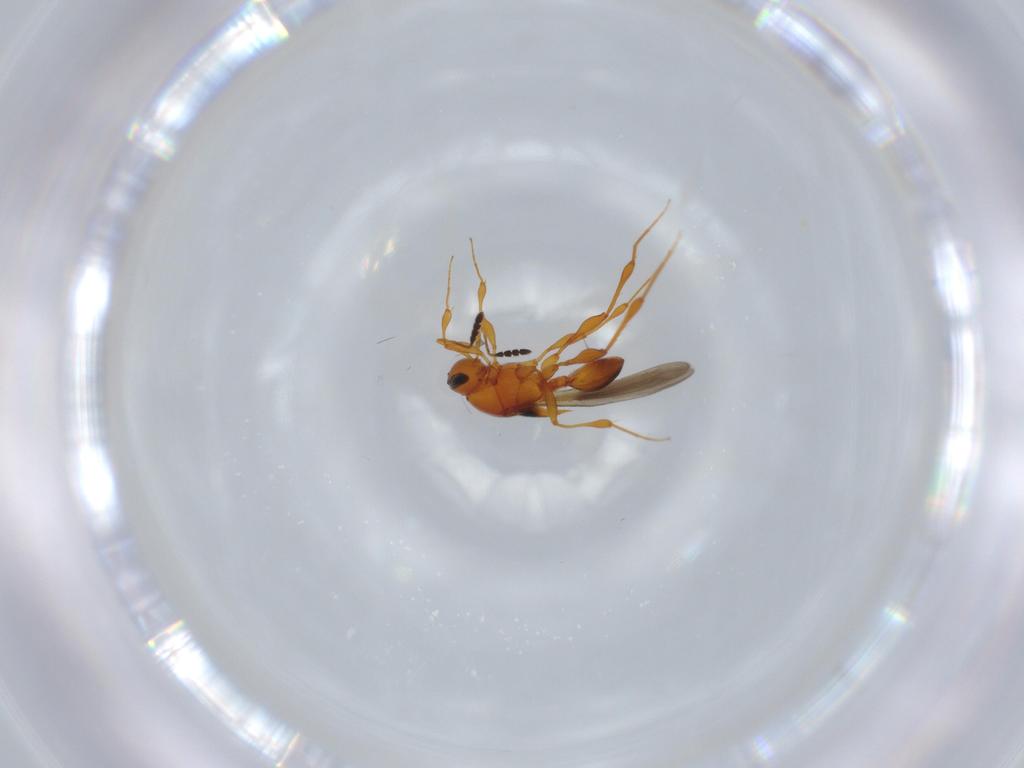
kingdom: Animalia
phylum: Arthropoda
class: Insecta
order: Hymenoptera
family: Platygastridae
